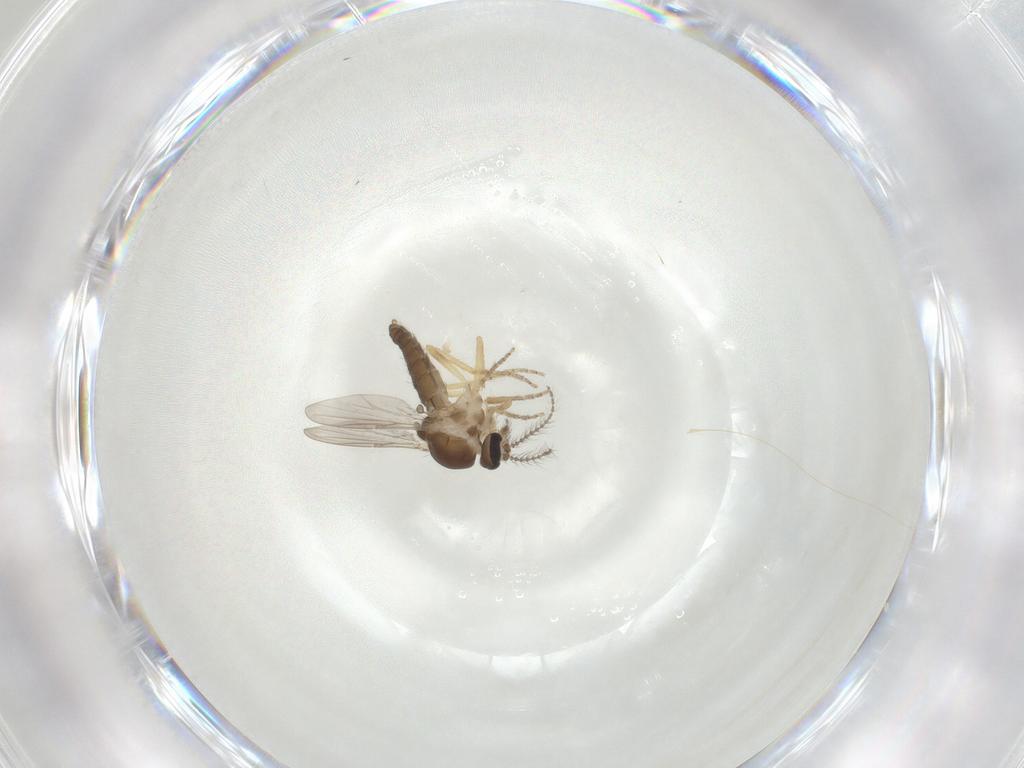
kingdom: Animalia
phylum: Arthropoda
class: Insecta
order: Diptera
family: Ceratopogonidae
